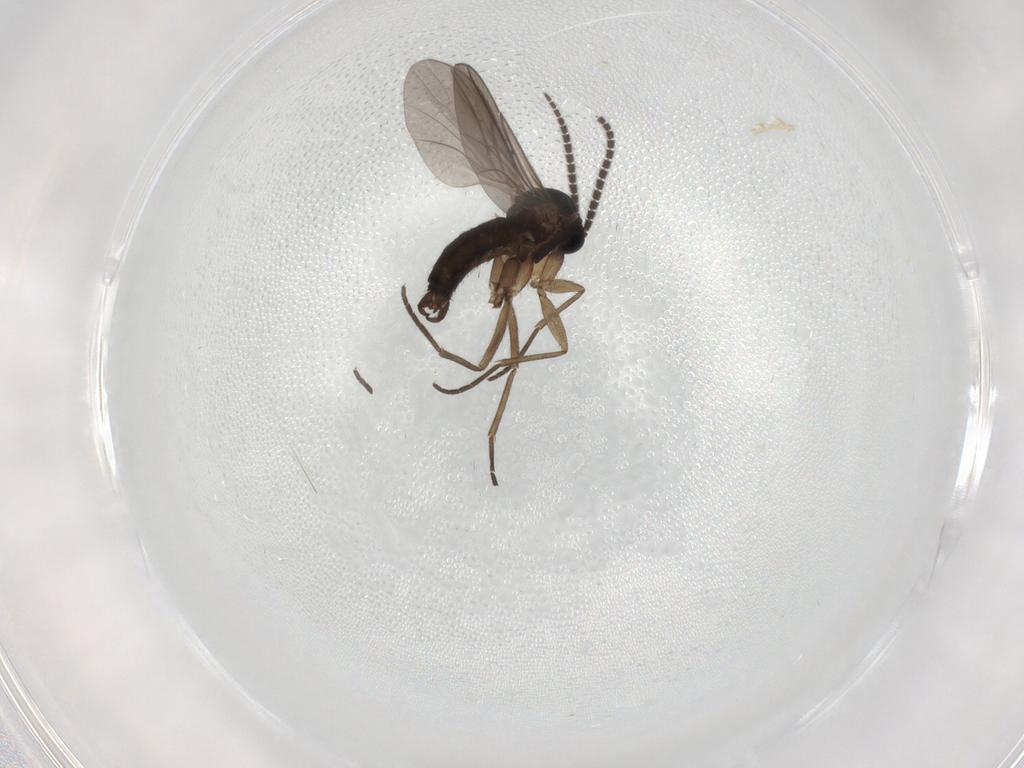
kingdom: Animalia
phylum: Arthropoda
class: Insecta
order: Diptera
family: Sciaridae
